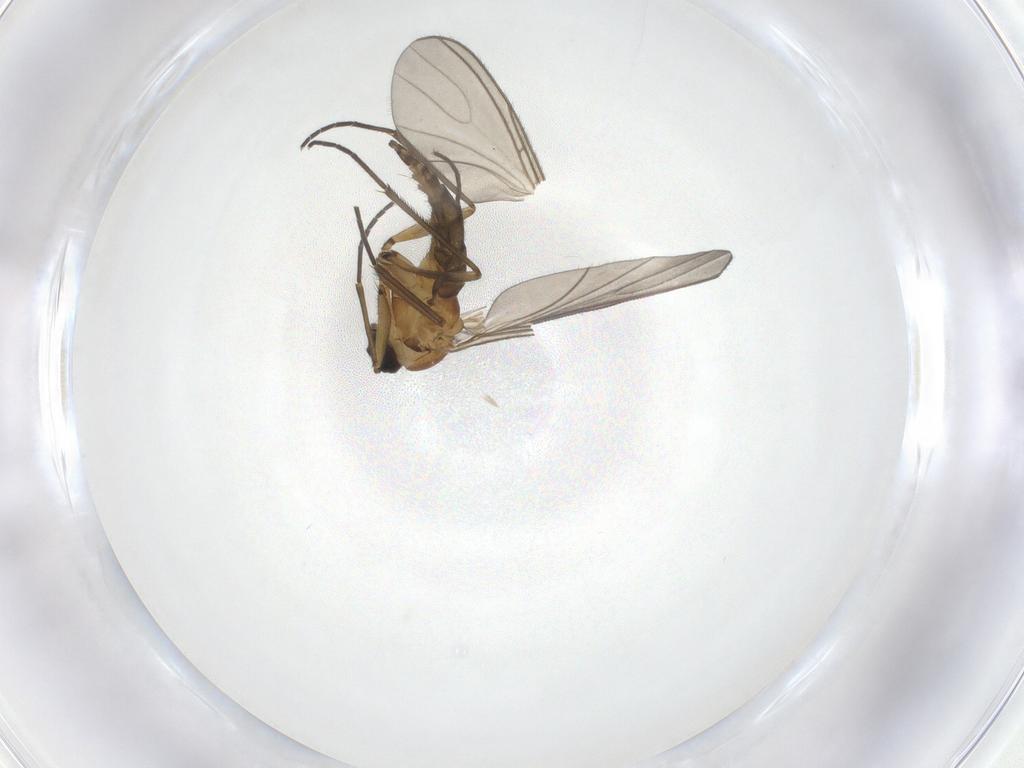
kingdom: Animalia
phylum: Arthropoda
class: Insecta
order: Diptera
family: Sciaridae
